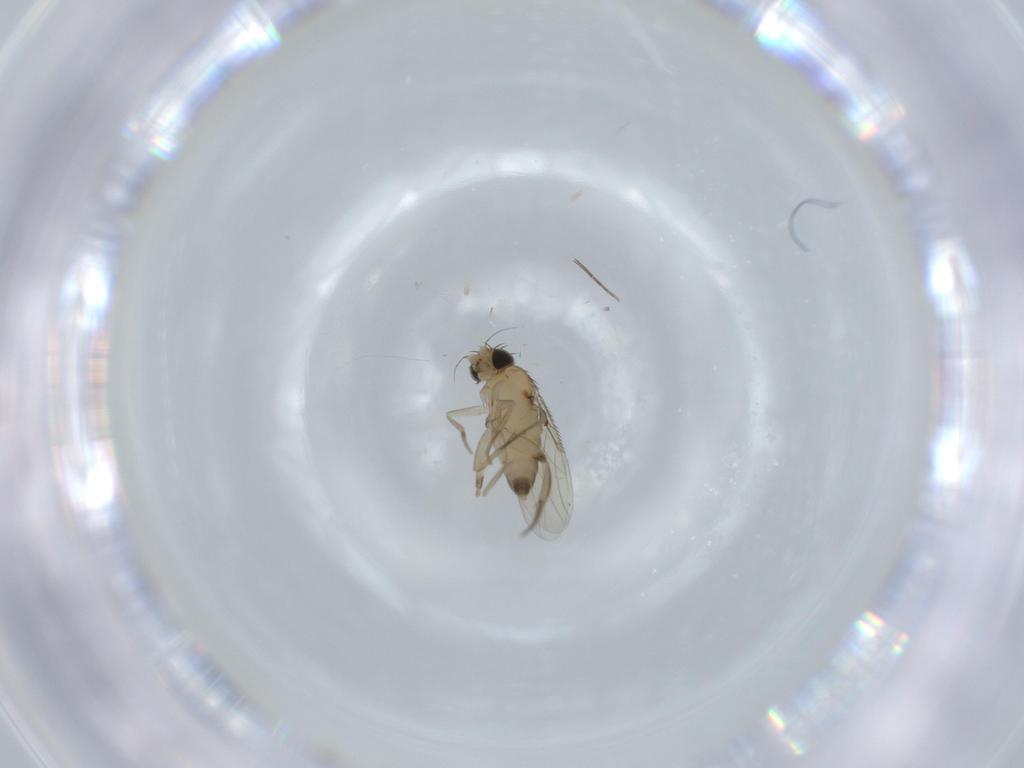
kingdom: Animalia
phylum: Arthropoda
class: Insecta
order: Diptera
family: Phoridae
